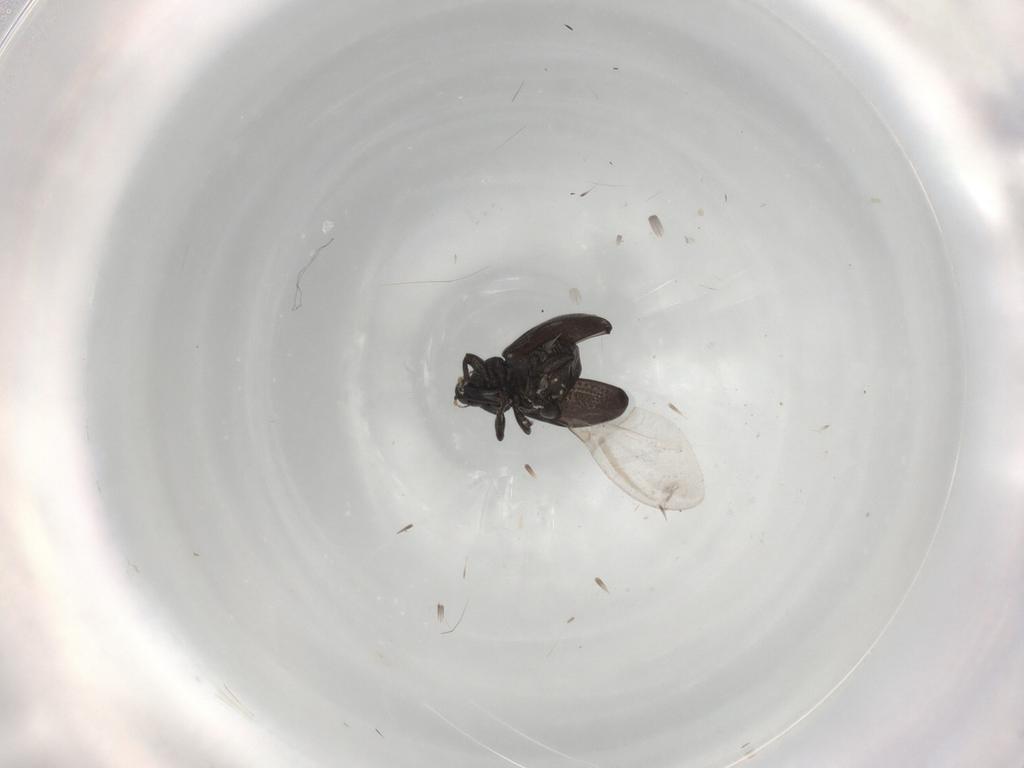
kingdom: Animalia
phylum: Arthropoda
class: Insecta
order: Coleoptera
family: Curculionidae
